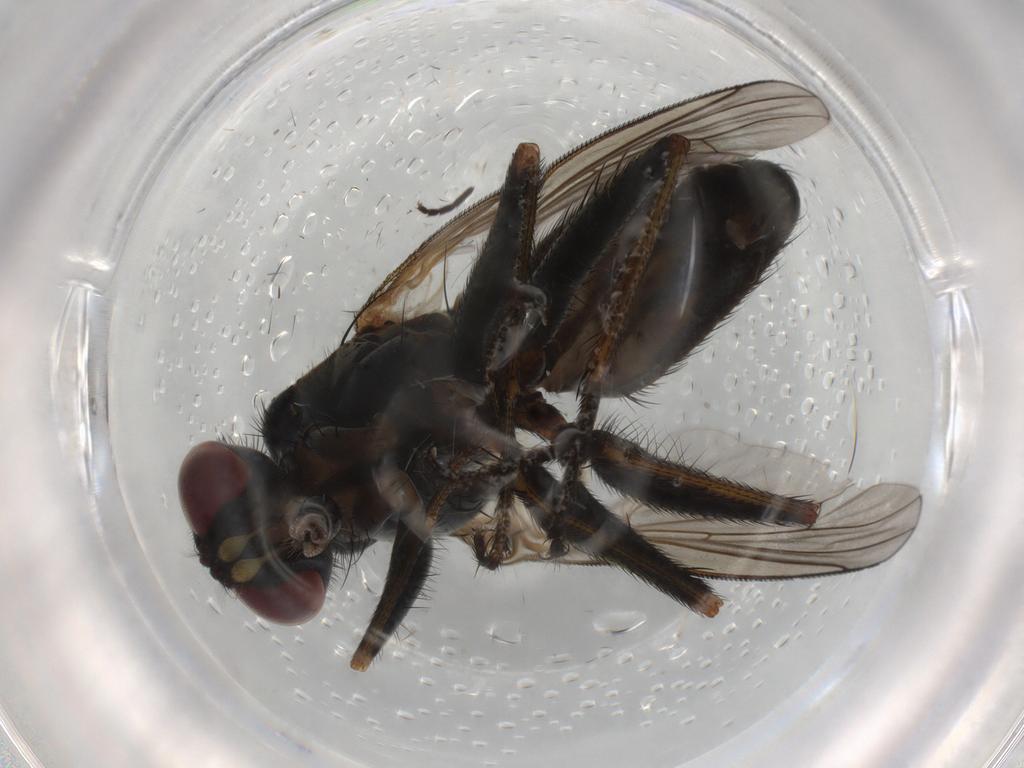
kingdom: Animalia
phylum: Arthropoda
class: Insecta
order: Diptera
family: Muscidae
